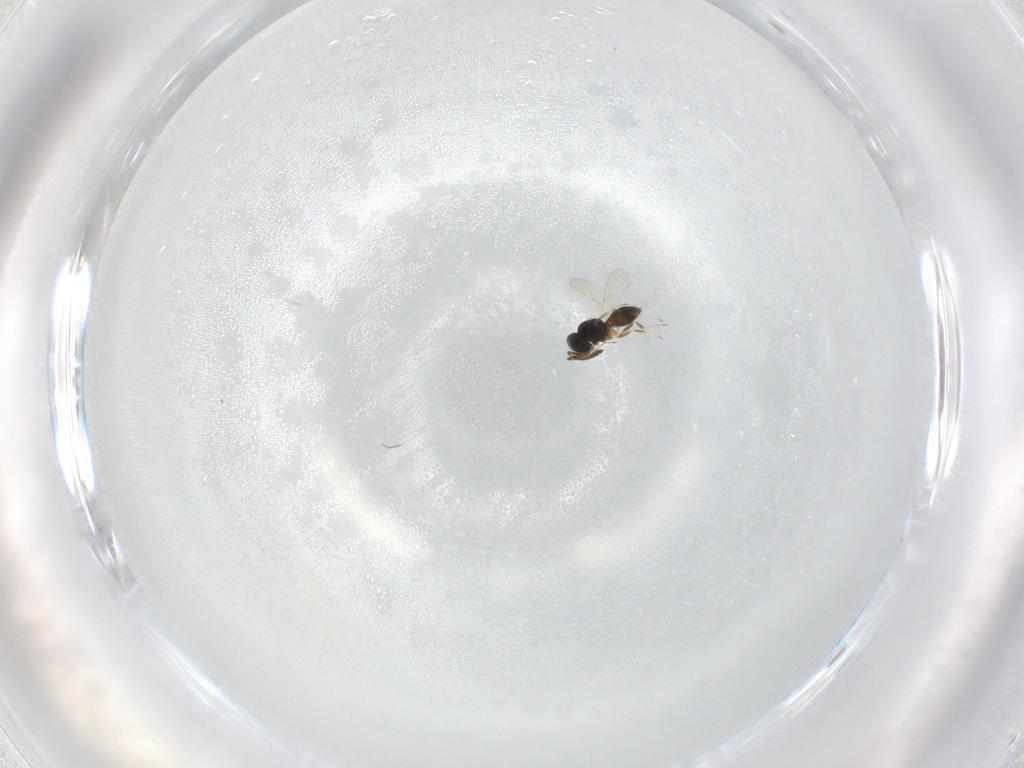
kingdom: Animalia
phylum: Arthropoda
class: Insecta
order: Hymenoptera
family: Scelionidae
